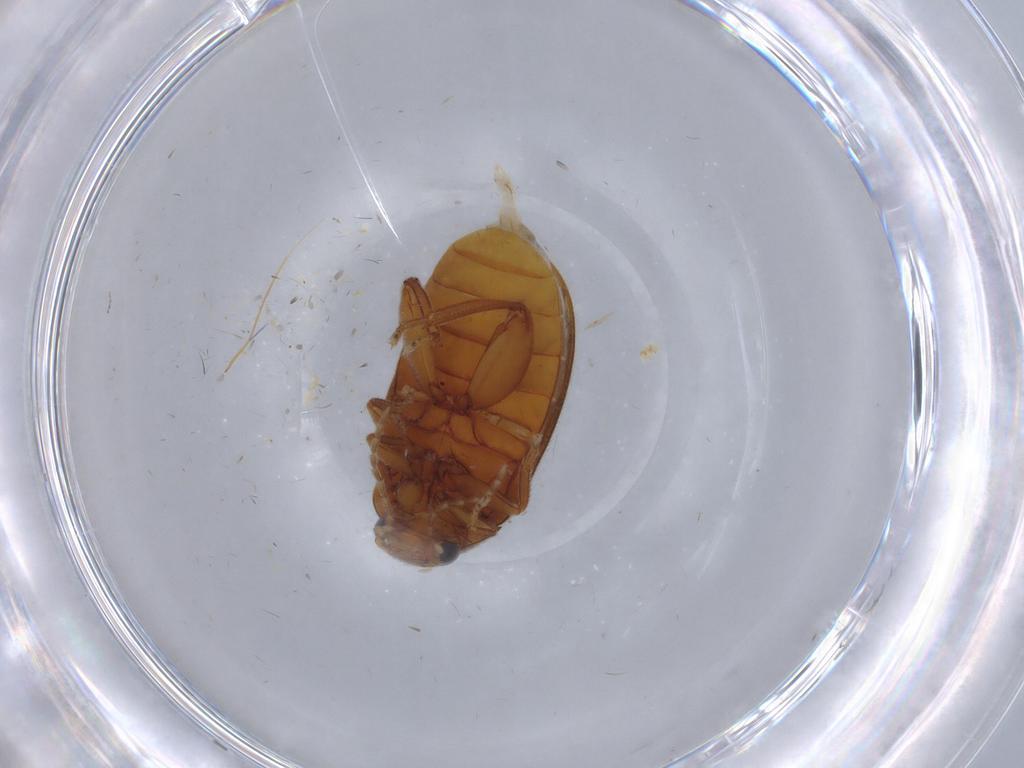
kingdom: Animalia
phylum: Arthropoda
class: Insecta
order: Coleoptera
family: Scirtidae
